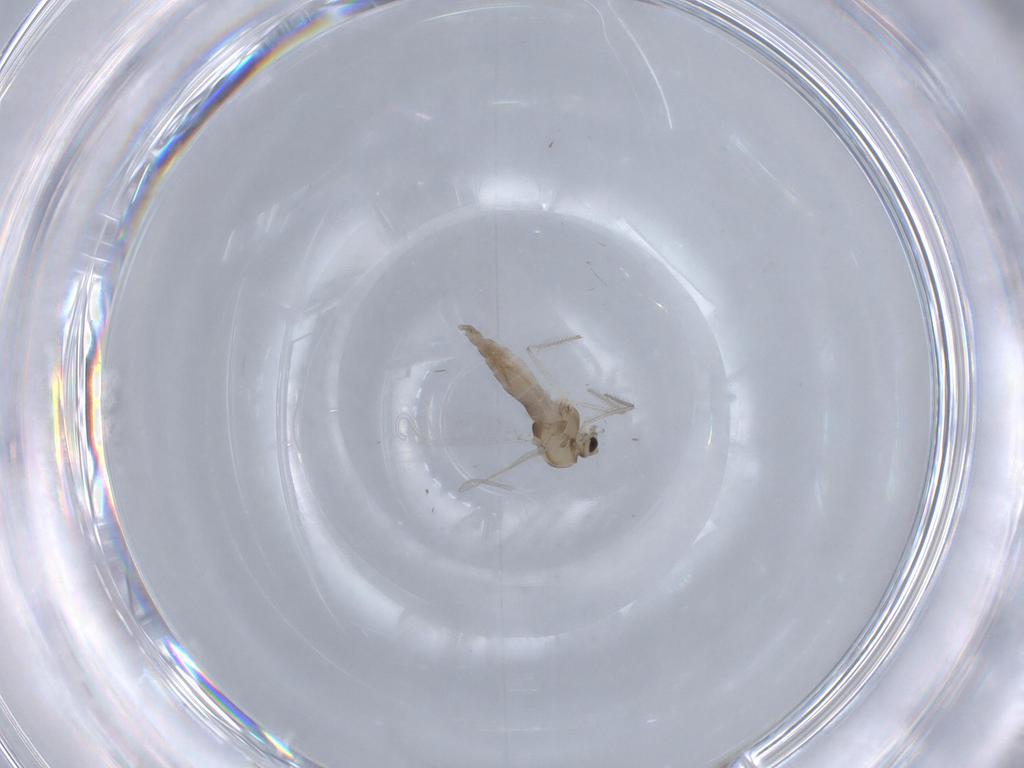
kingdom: Animalia
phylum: Arthropoda
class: Insecta
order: Diptera
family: Chironomidae
